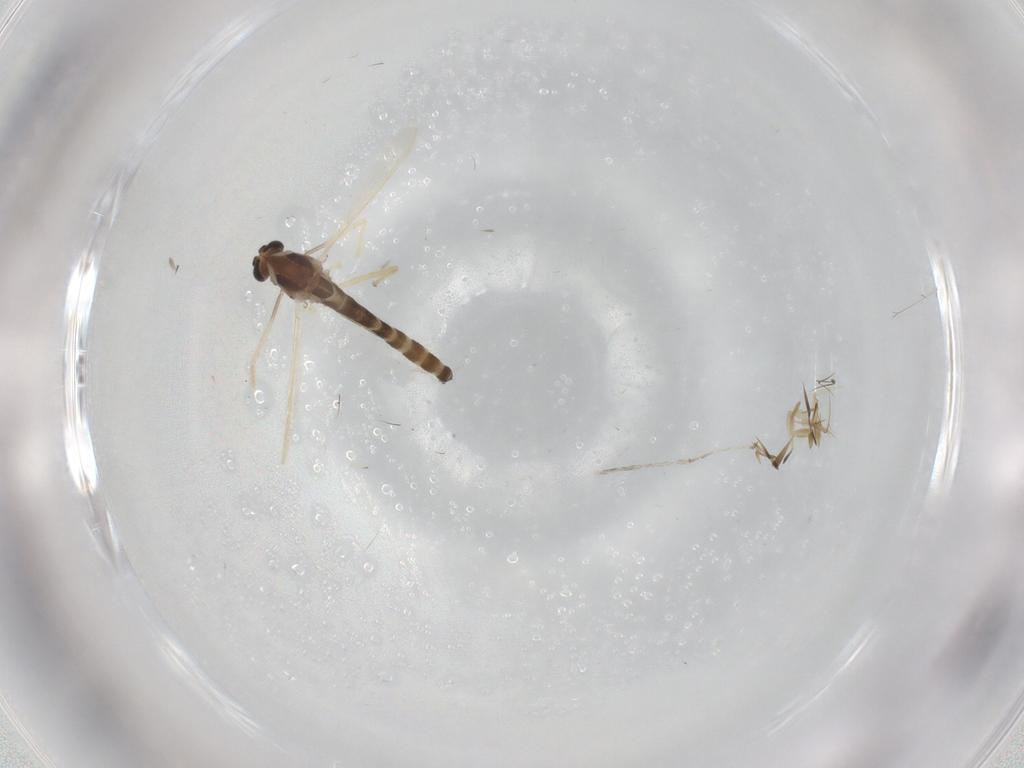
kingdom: Animalia
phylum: Arthropoda
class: Insecta
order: Diptera
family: Chironomidae
